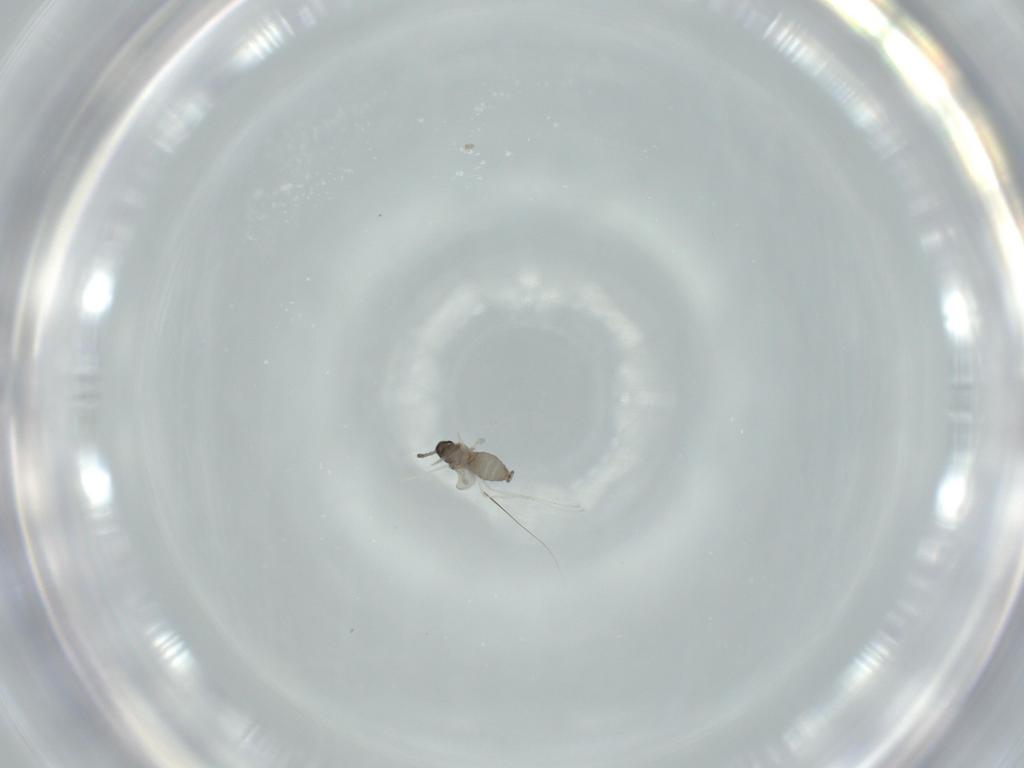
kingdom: Animalia
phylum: Arthropoda
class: Insecta
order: Diptera
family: Cecidomyiidae
